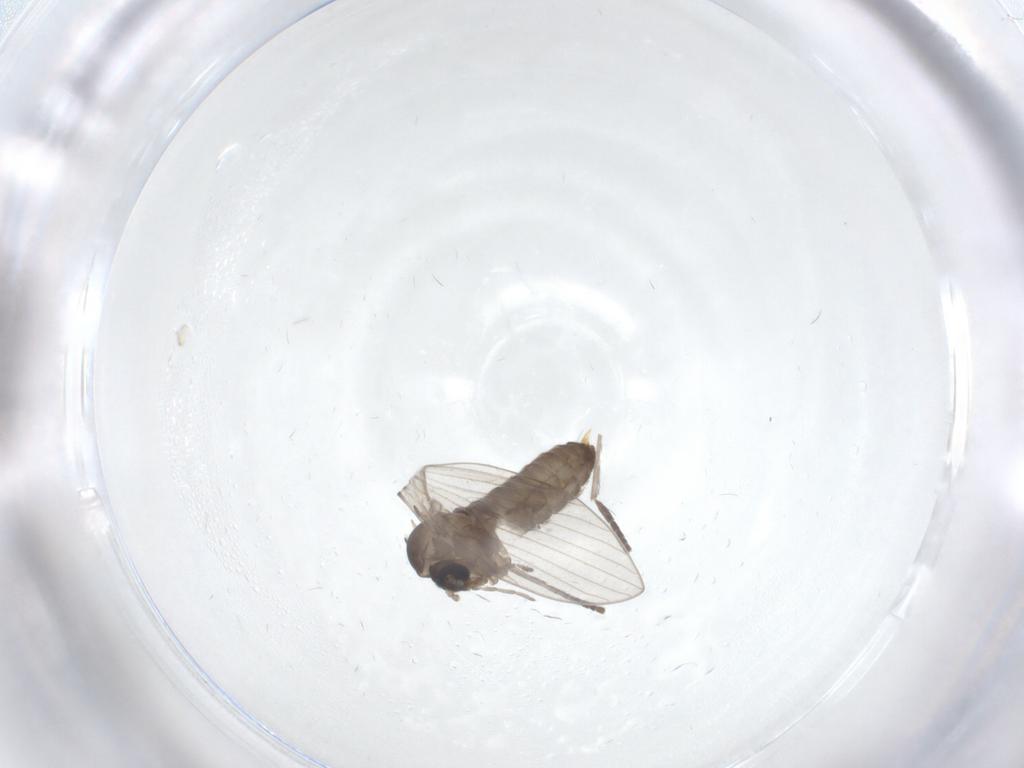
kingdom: Animalia
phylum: Arthropoda
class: Insecta
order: Diptera
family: Psychodidae
